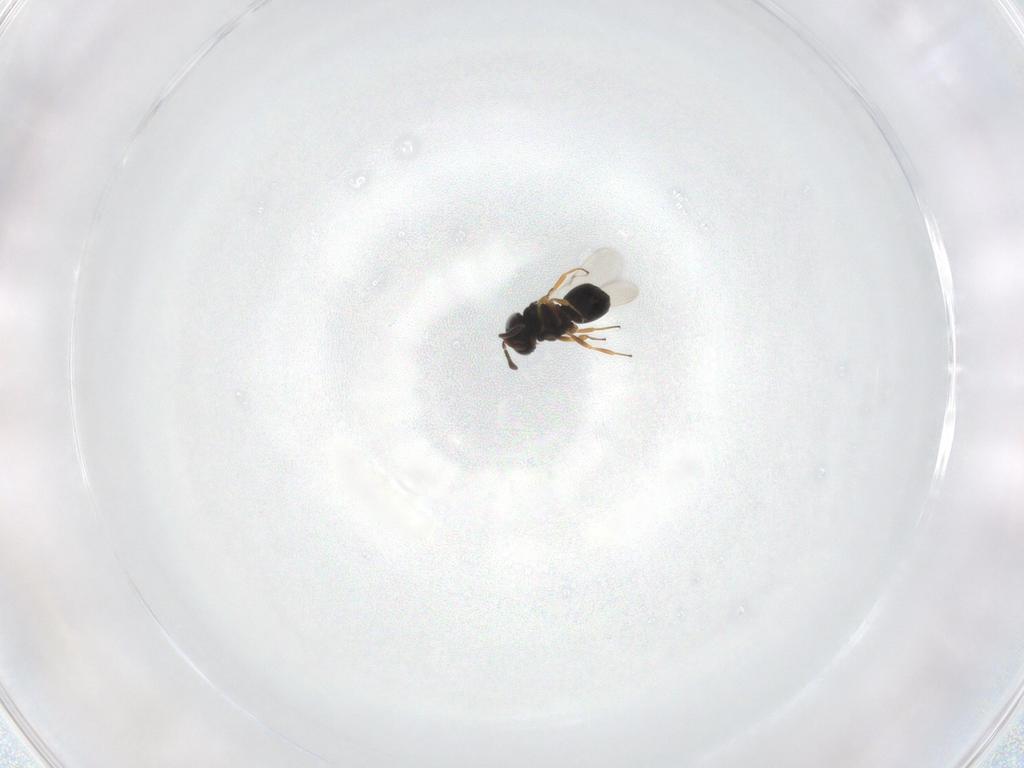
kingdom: Animalia
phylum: Arthropoda
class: Insecta
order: Hymenoptera
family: Scelionidae
